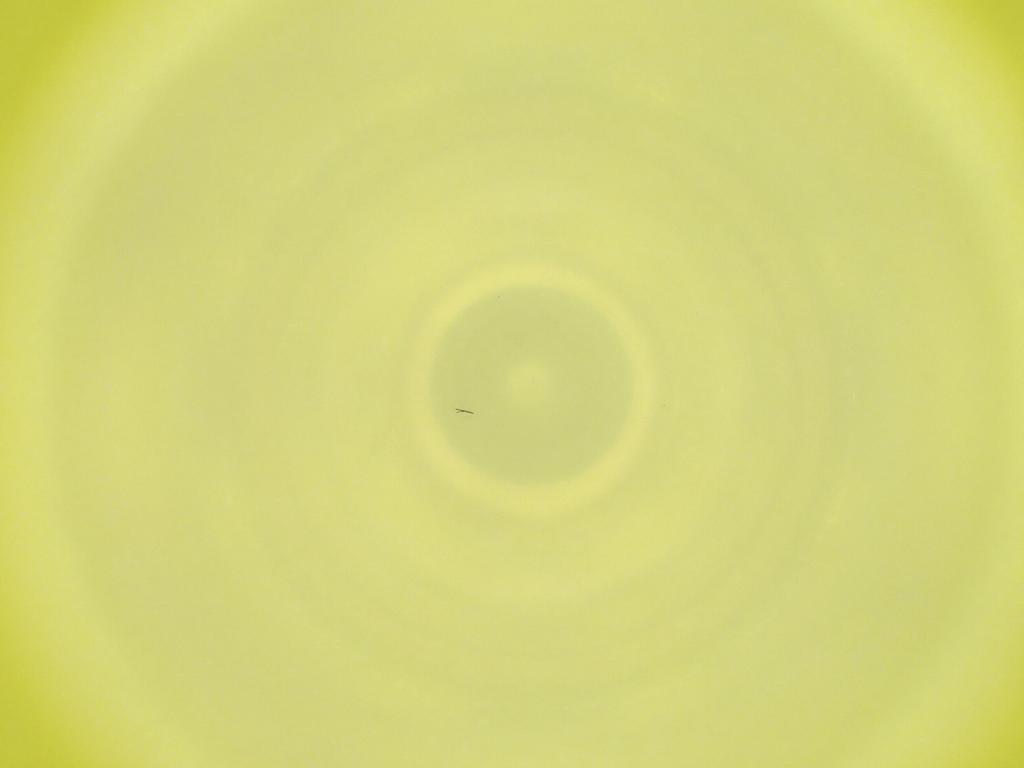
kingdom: Animalia
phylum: Arthropoda
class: Insecta
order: Diptera
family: Cecidomyiidae
